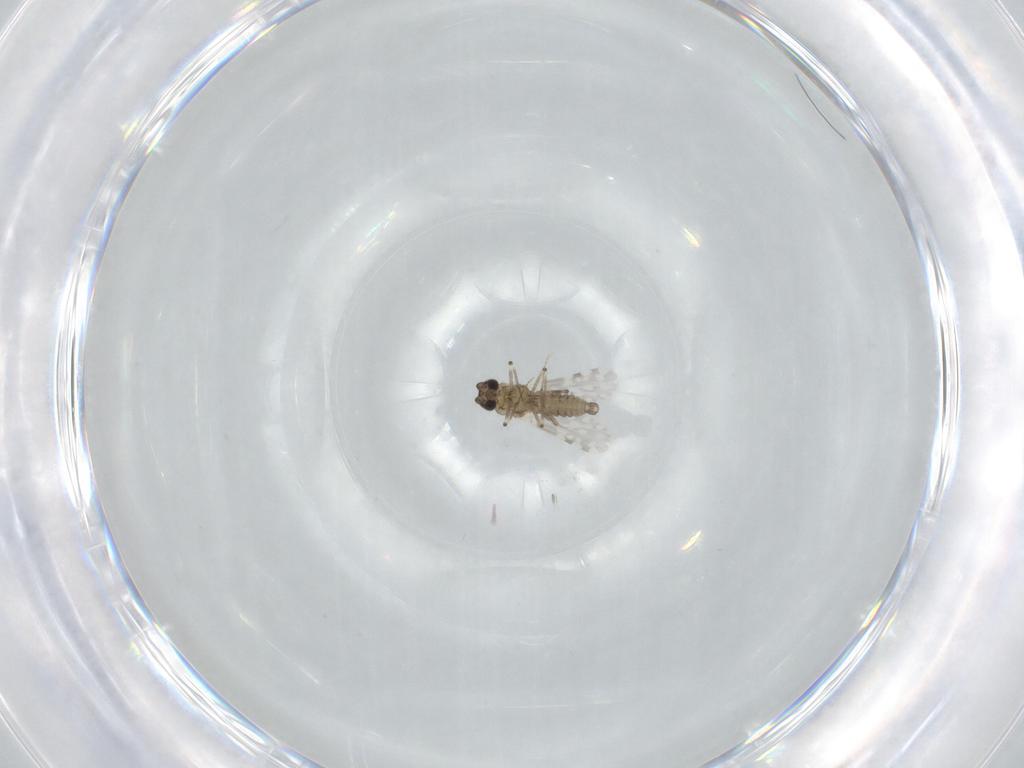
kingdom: Animalia
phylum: Arthropoda
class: Insecta
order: Diptera
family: Ceratopogonidae
